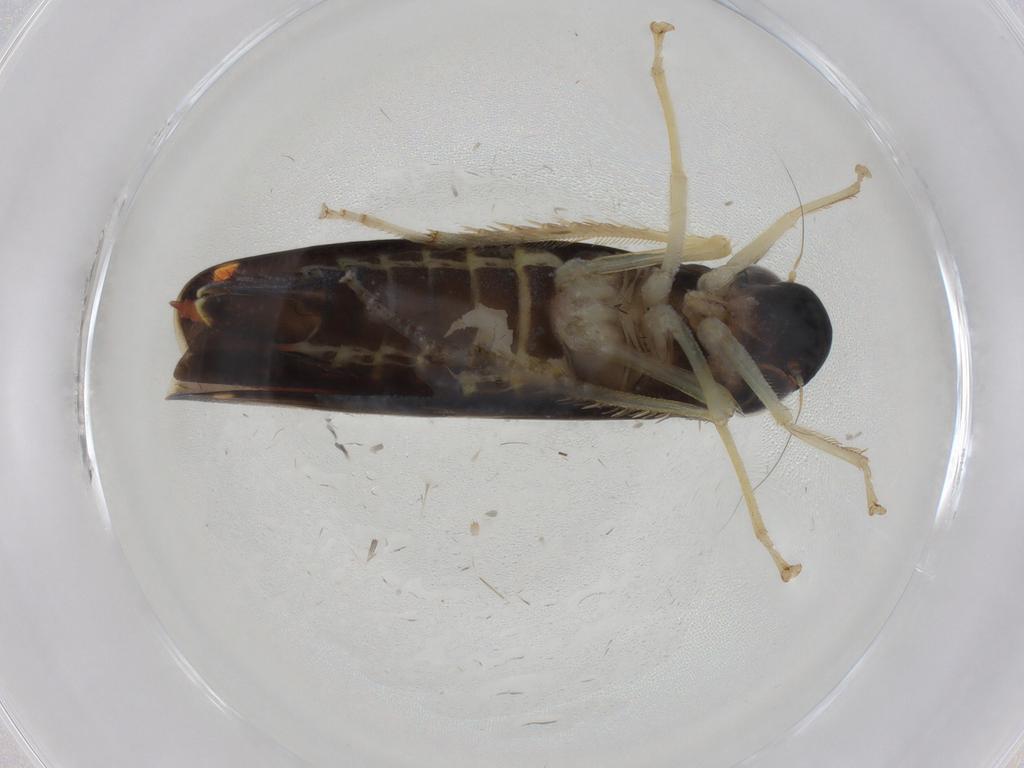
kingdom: Animalia
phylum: Arthropoda
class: Insecta
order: Hemiptera
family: Cicadellidae
